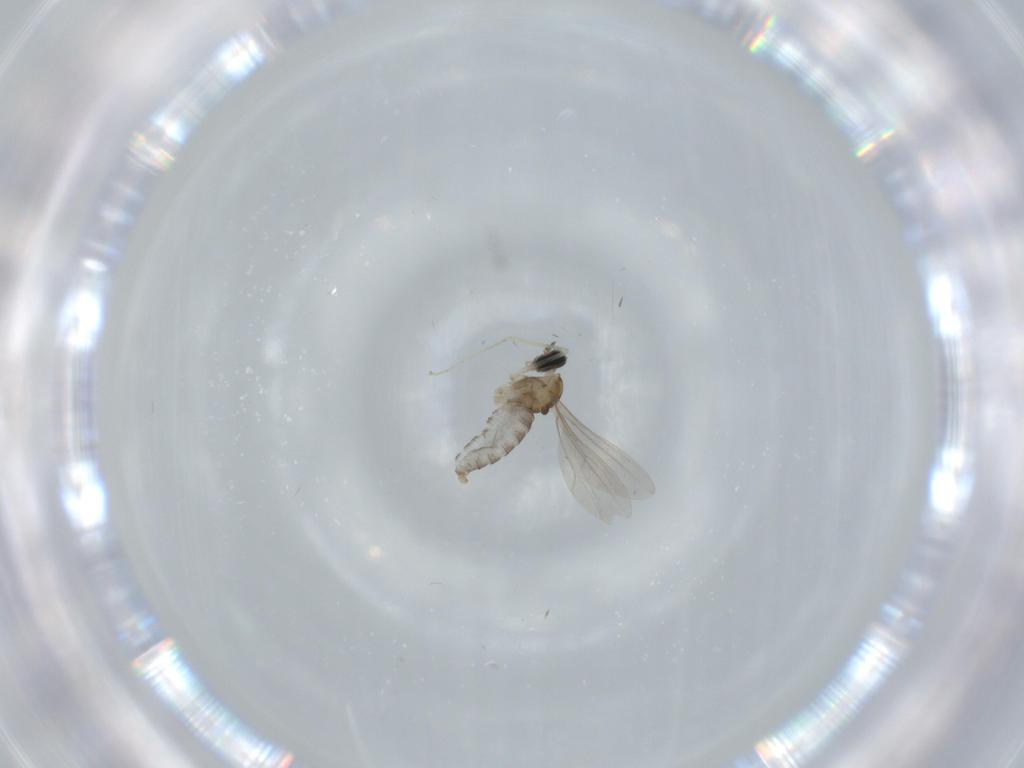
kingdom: Animalia
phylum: Arthropoda
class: Insecta
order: Diptera
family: Cecidomyiidae
